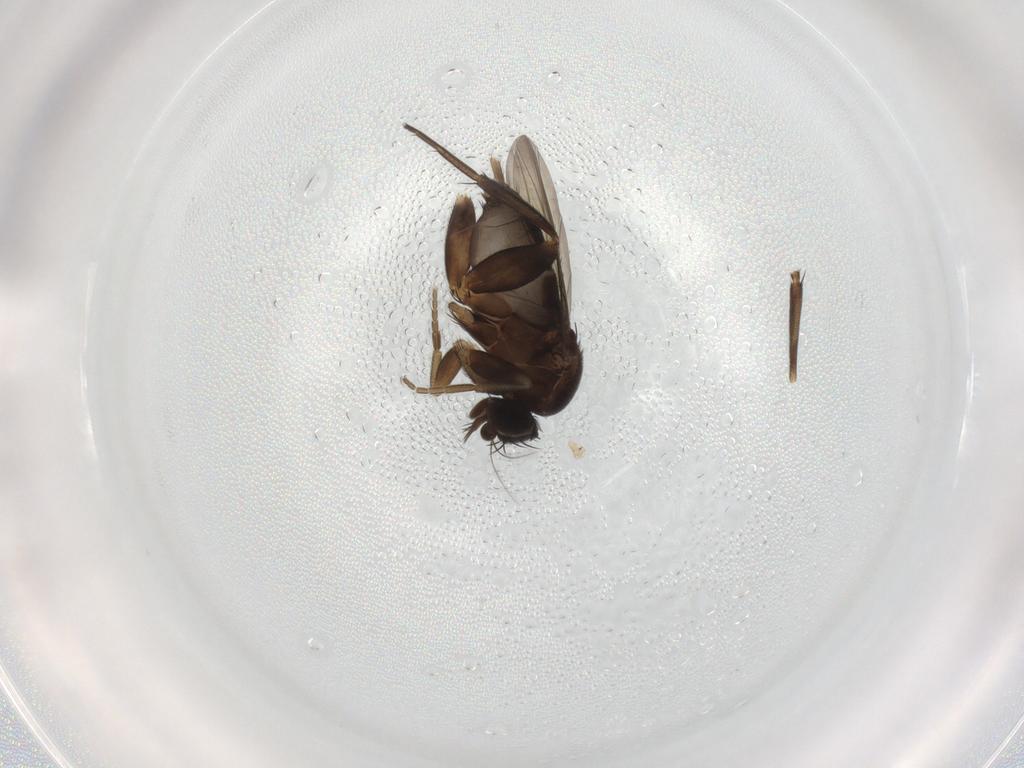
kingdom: Animalia
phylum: Arthropoda
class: Insecta
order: Diptera
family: Phoridae
